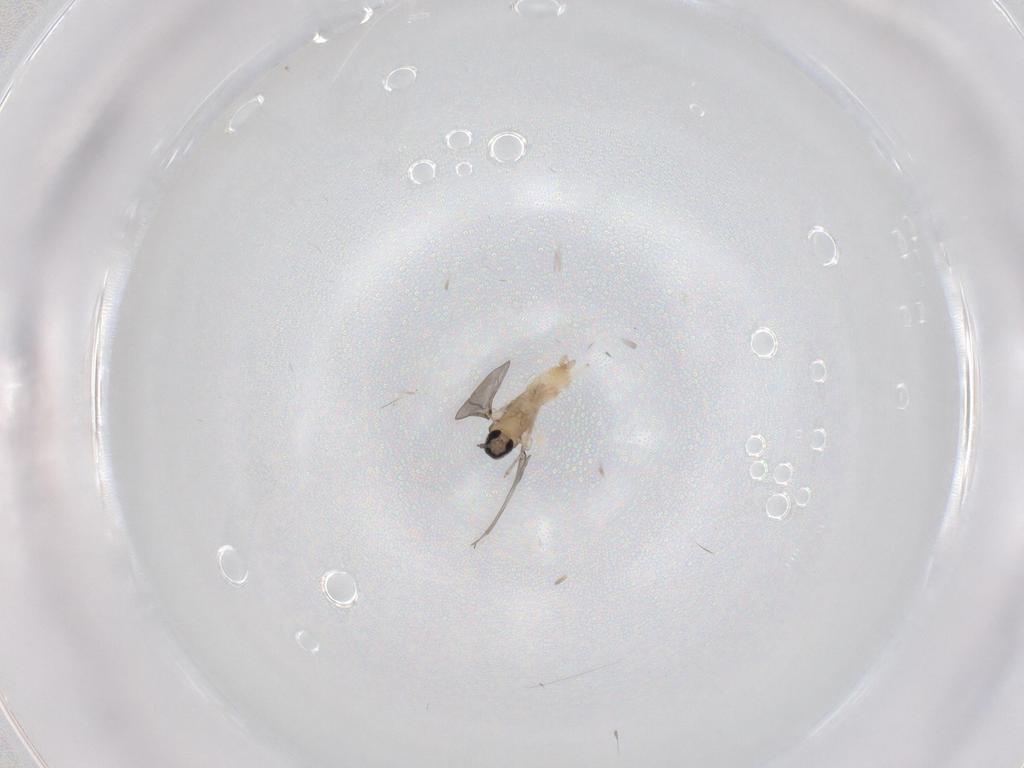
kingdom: Animalia
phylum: Arthropoda
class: Insecta
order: Diptera
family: Cecidomyiidae
